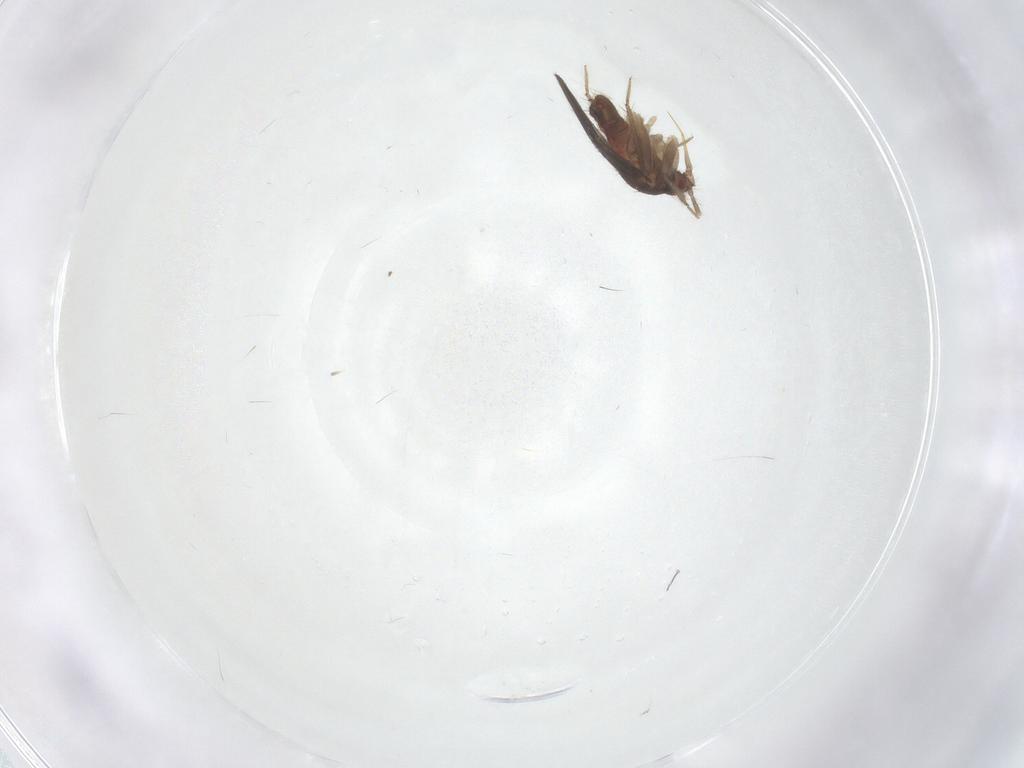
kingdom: Animalia
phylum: Arthropoda
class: Insecta
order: Hemiptera
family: Ceratocombidae
